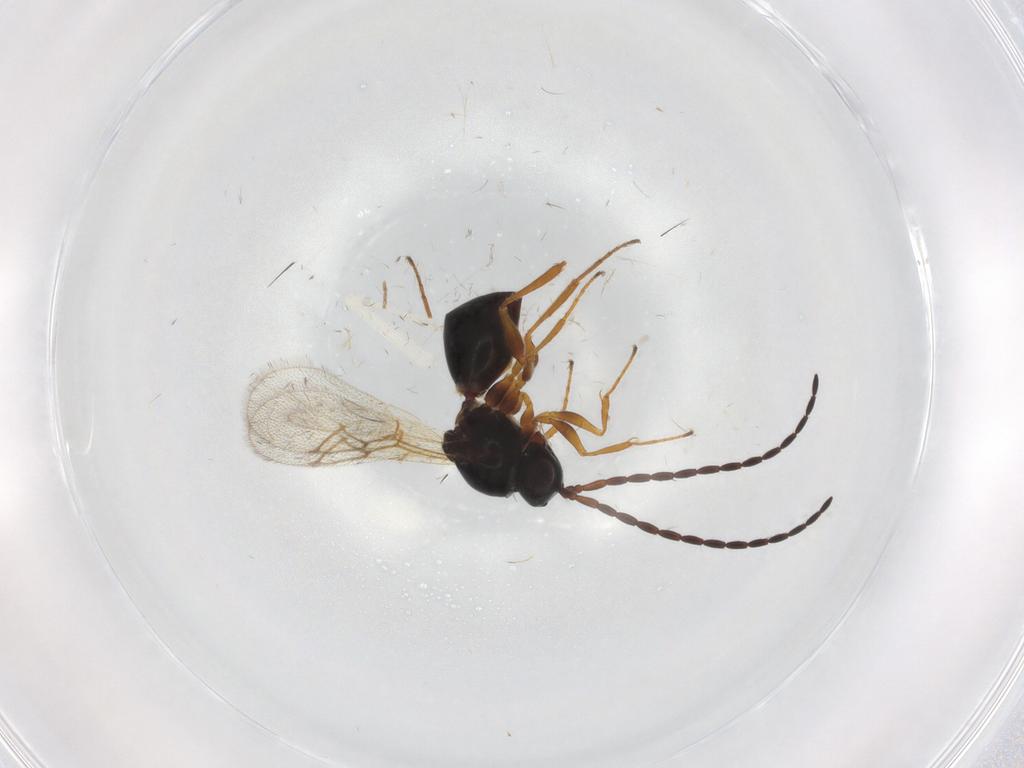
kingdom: Animalia
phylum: Arthropoda
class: Insecta
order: Hymenoptera
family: Figitidae
